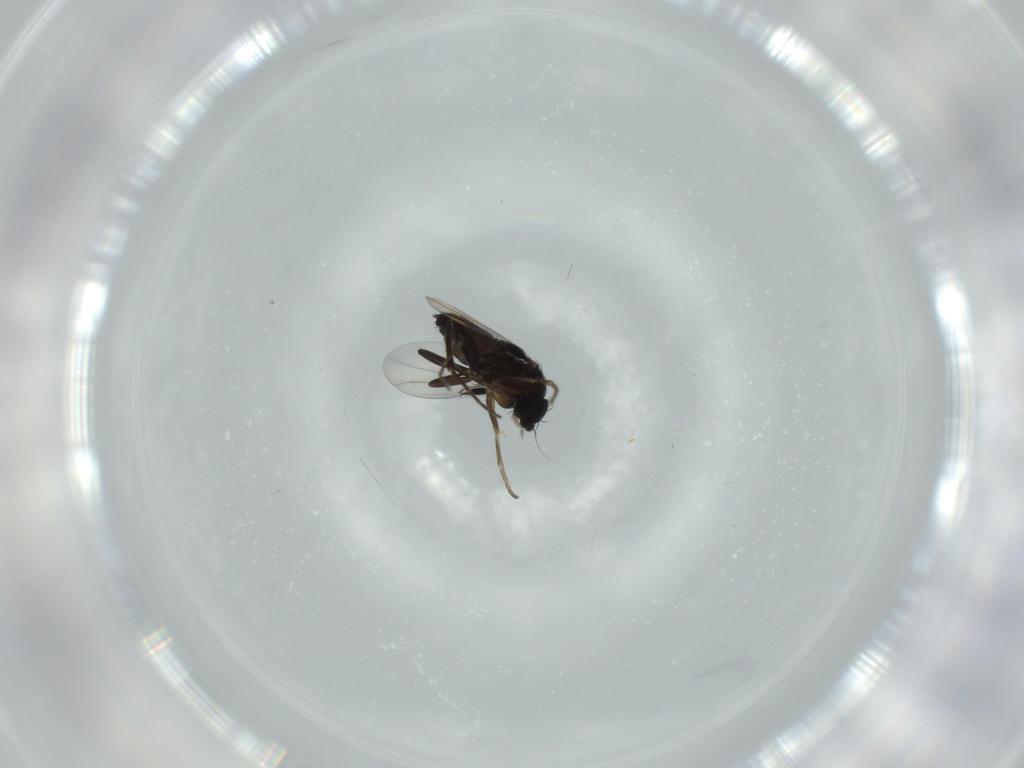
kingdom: Animalia
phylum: Arthropoda
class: Insecta
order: Diptera
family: Phoridae
